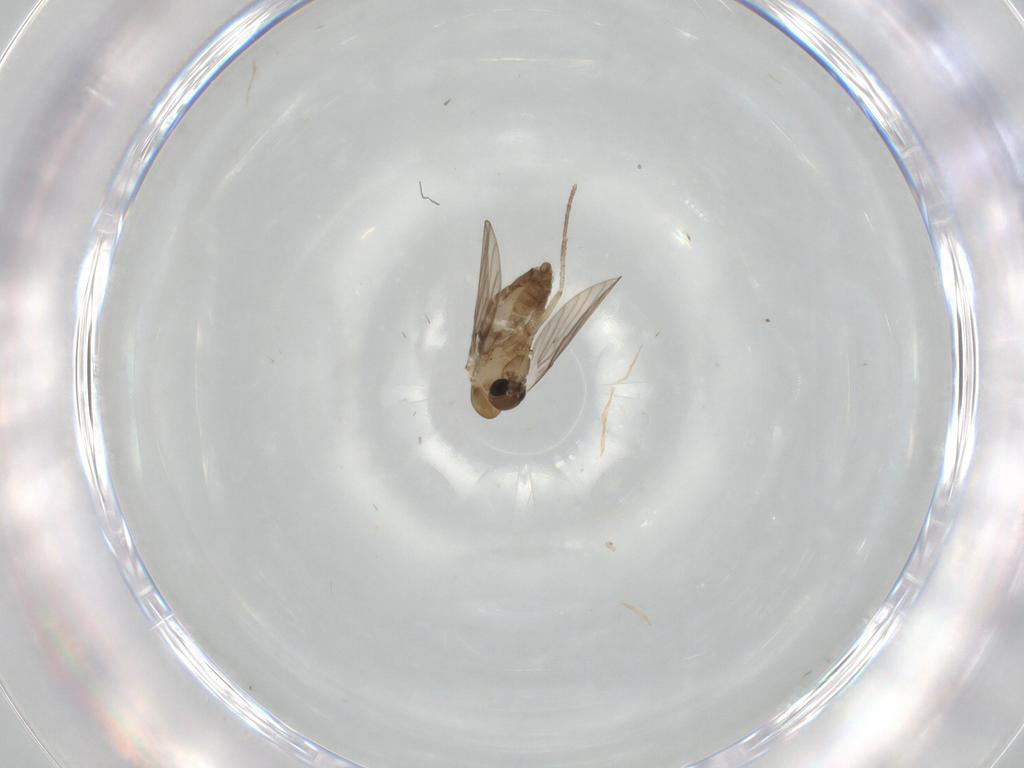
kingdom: Animalia
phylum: Arthropoda
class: Insecta
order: Diptera
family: Psychodidae
